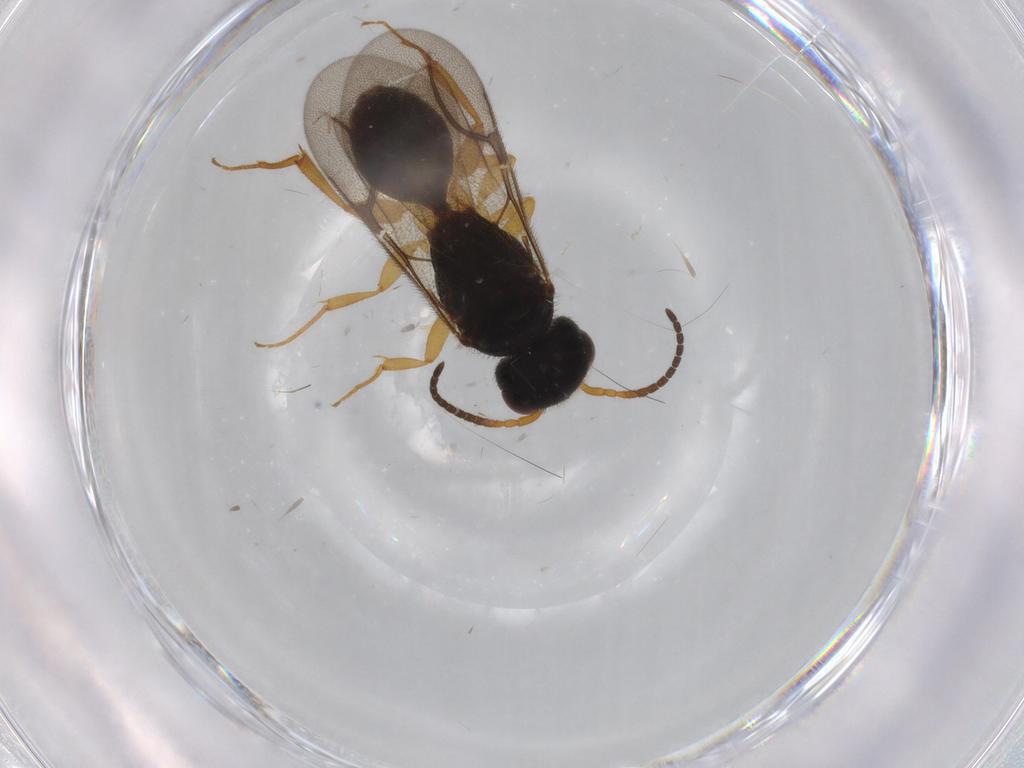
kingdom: Animalia
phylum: Arthropoda
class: Insecta
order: Hymenoptera
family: Bethylidae
